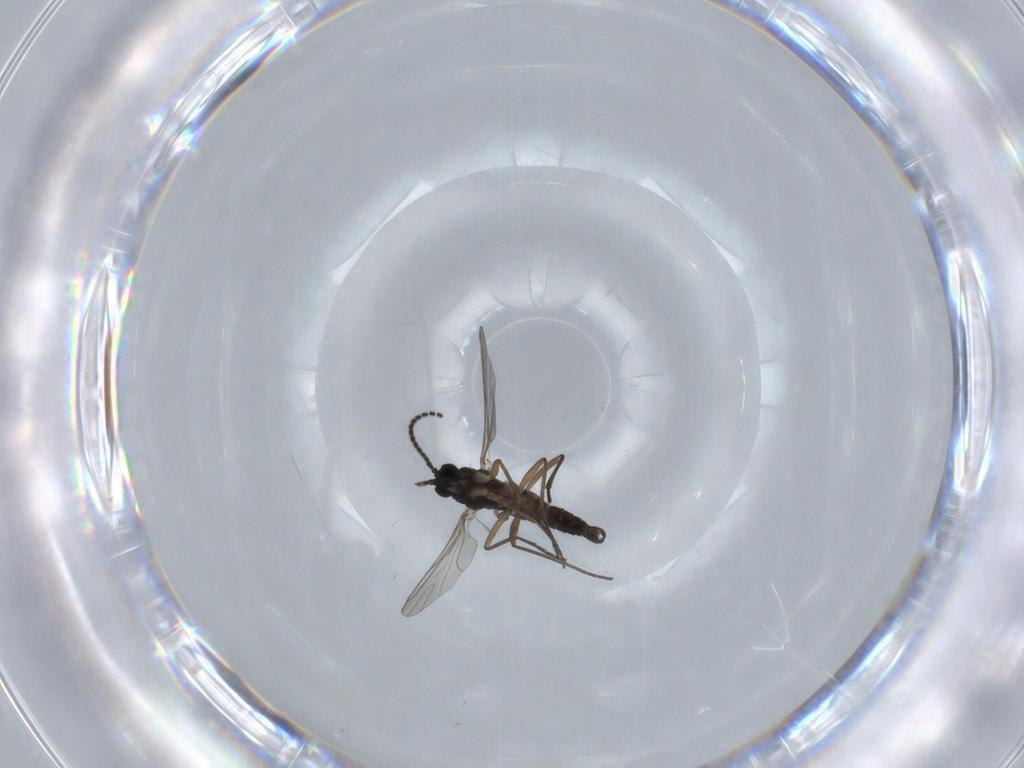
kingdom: Animalia
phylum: Arthropoda
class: Insecta
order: Diptera
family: Sciaridae
